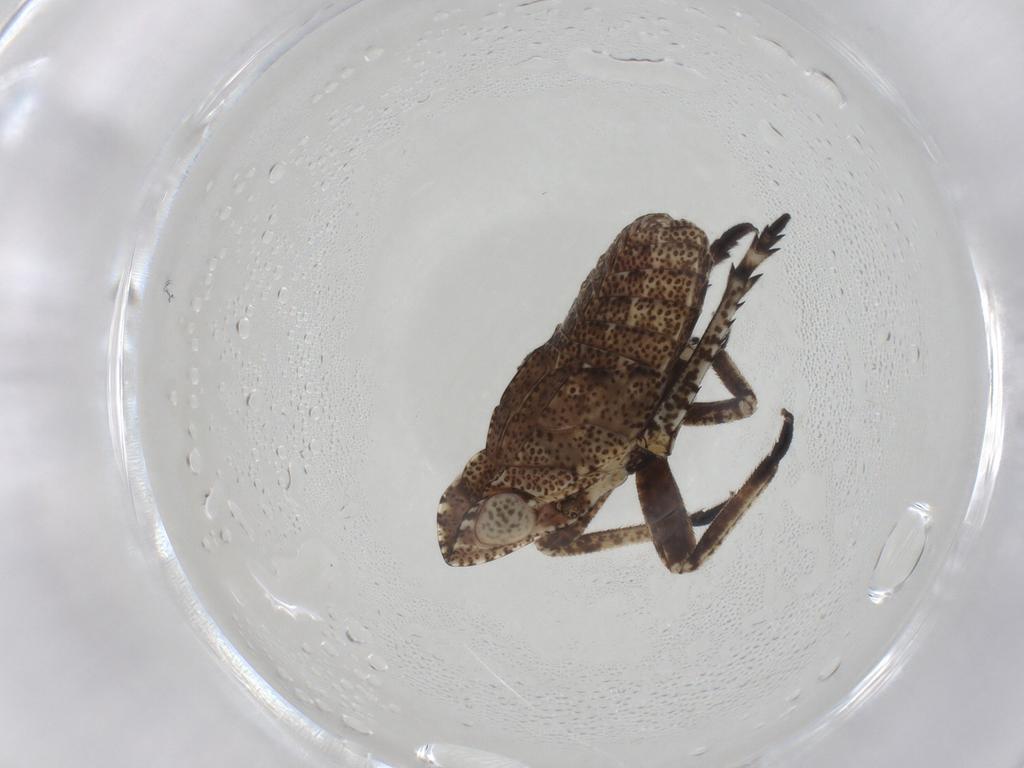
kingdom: Animalia
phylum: Arthropoda
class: Insecta
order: Hemiptera
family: Dictyopharidae
